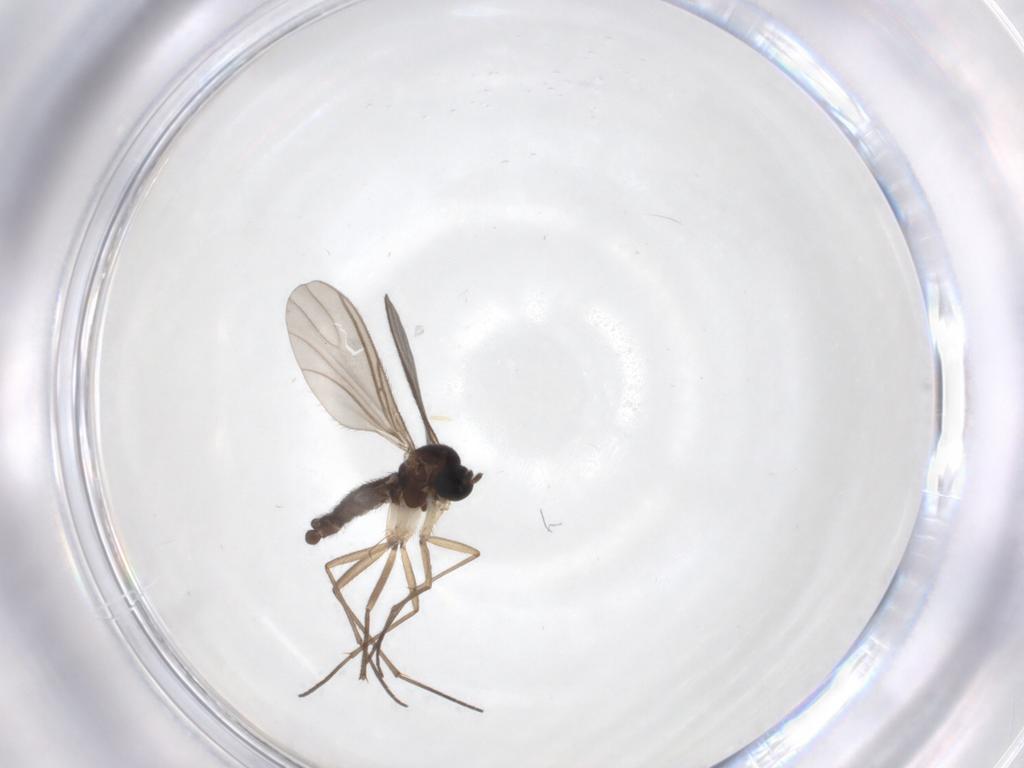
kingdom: Animalia
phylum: Arthropoda
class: Insecta
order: Diptera
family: Sciaridae
